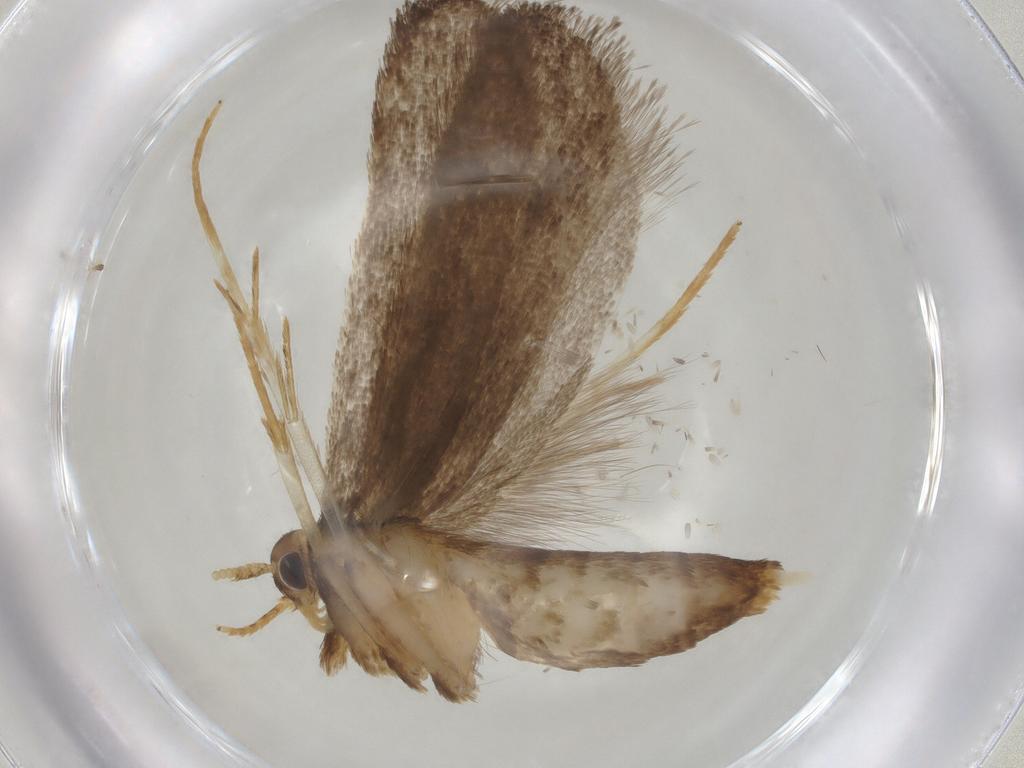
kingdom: Animalia
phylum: Arthropoda
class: Insecta
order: Lepidoptera
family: Lecithoceridae
